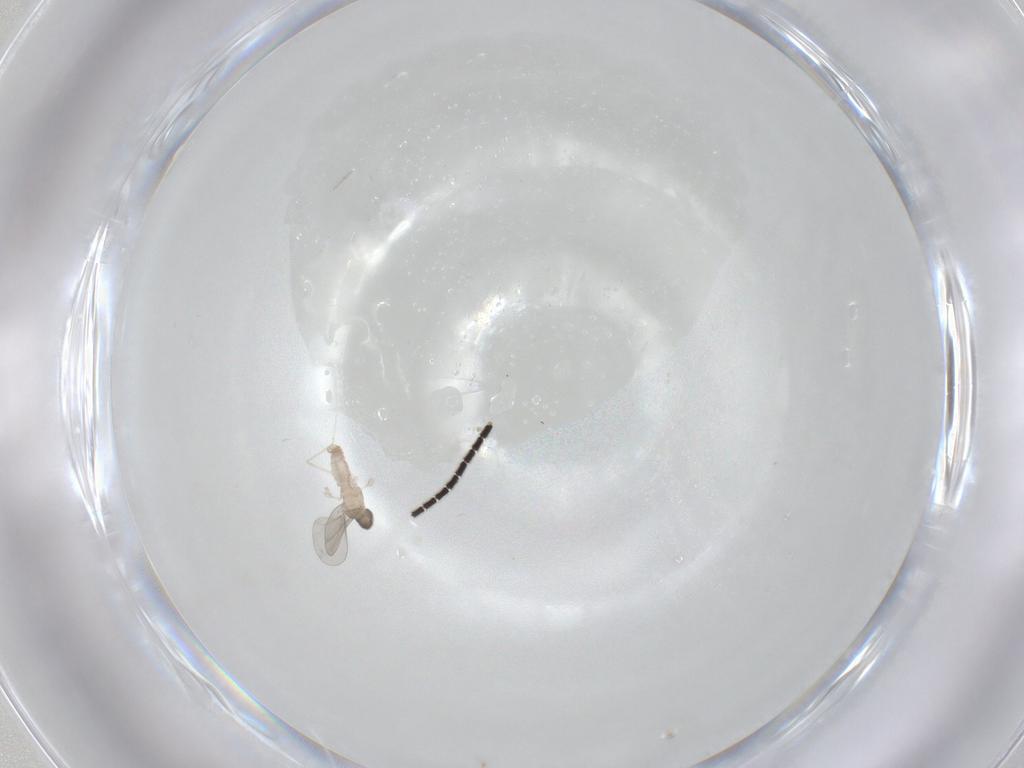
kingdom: Animalia
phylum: Arthropoda
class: Insecta
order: Diptera
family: Cecidomyiidae
